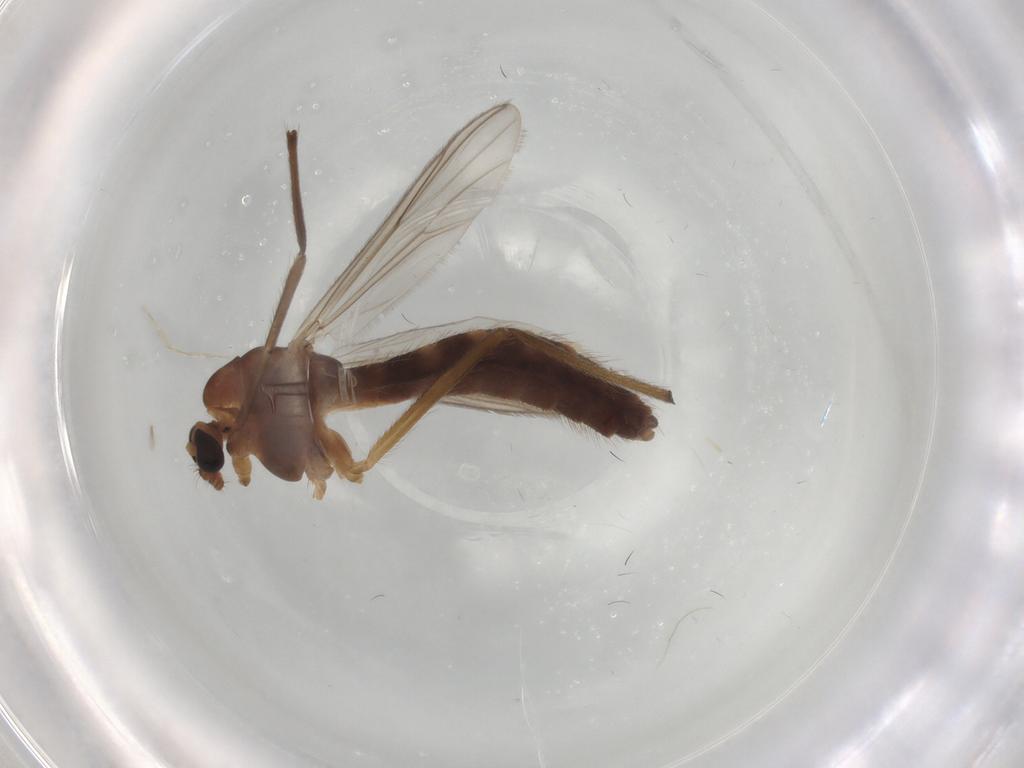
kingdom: Animalia
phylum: Arthropoda
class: Insecta
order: Diptera
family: Chironomidae
